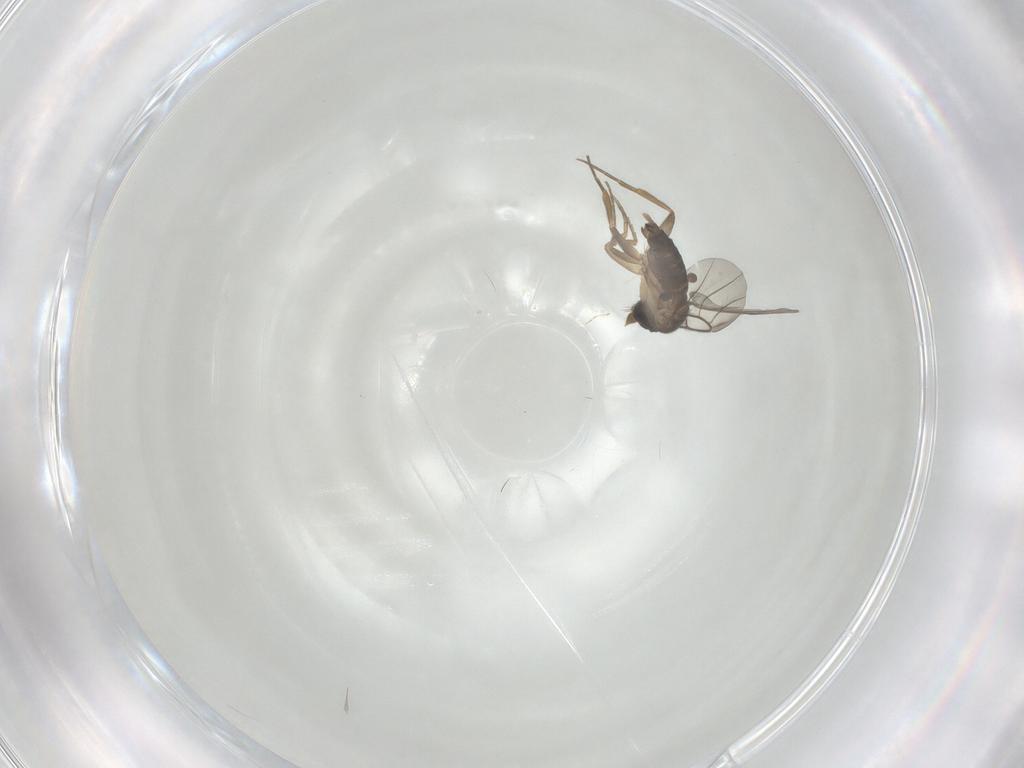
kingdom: Animalia
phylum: Arthropoda
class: Insecta
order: Diptera
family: Phoridae
